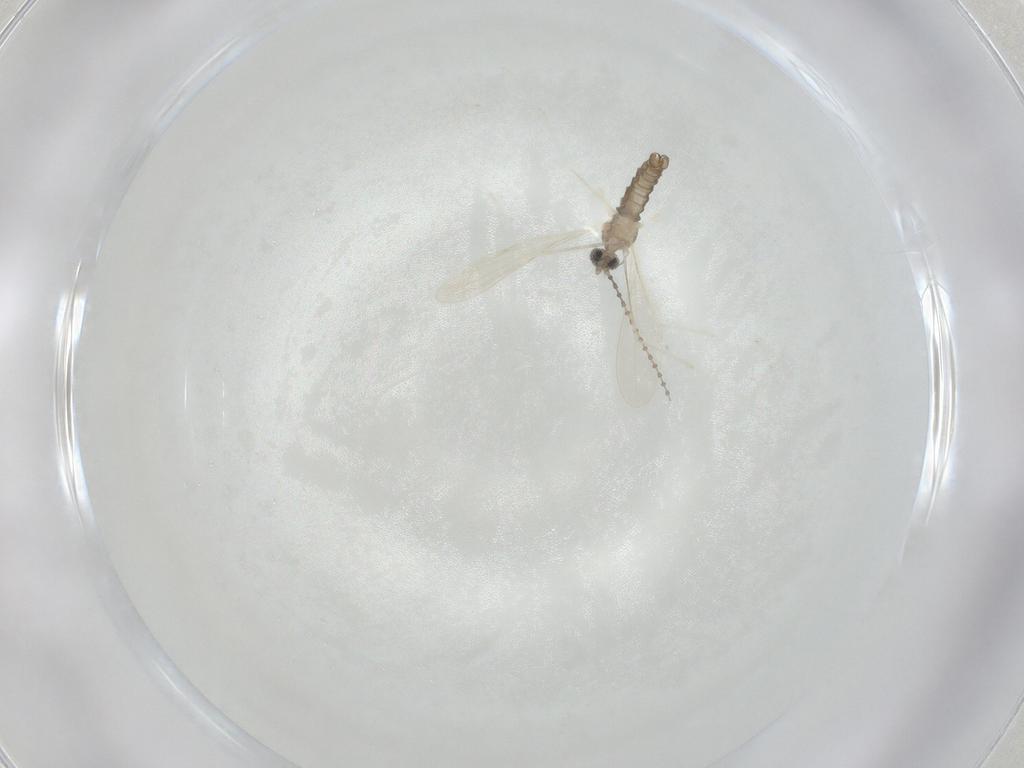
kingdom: Animalia
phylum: Arthropoda
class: Insecta
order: Diptera
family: Cecidomyiidae
